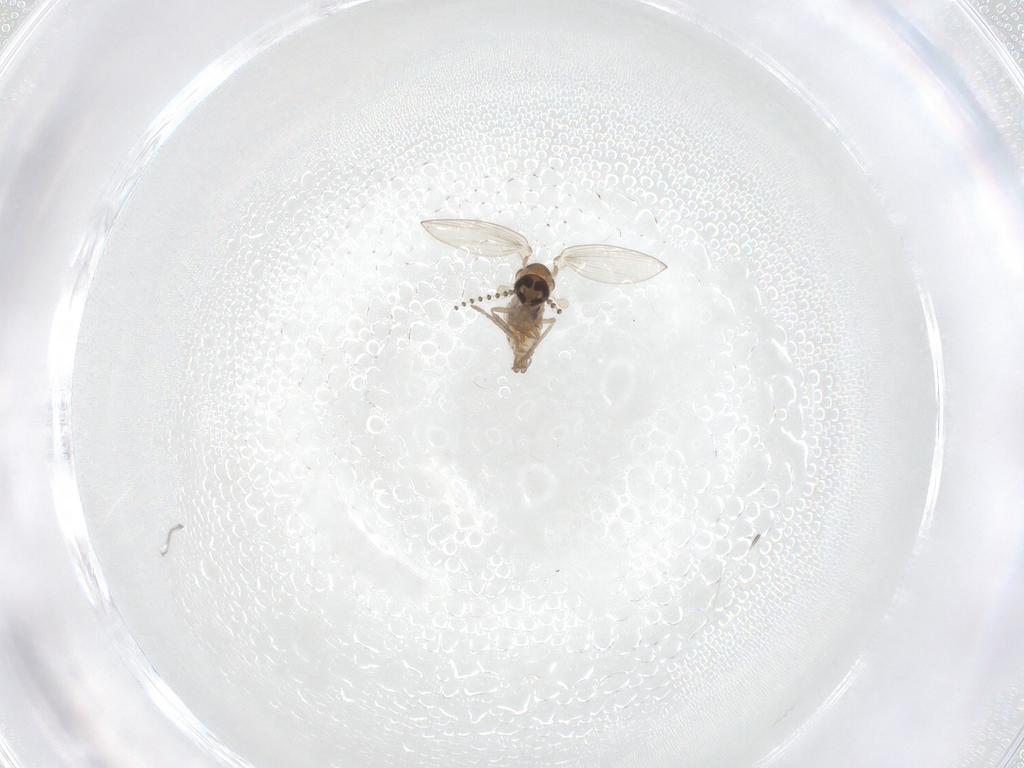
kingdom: Animalia
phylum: Arthropoda
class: Insecta
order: Diptera
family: Psychodidae
